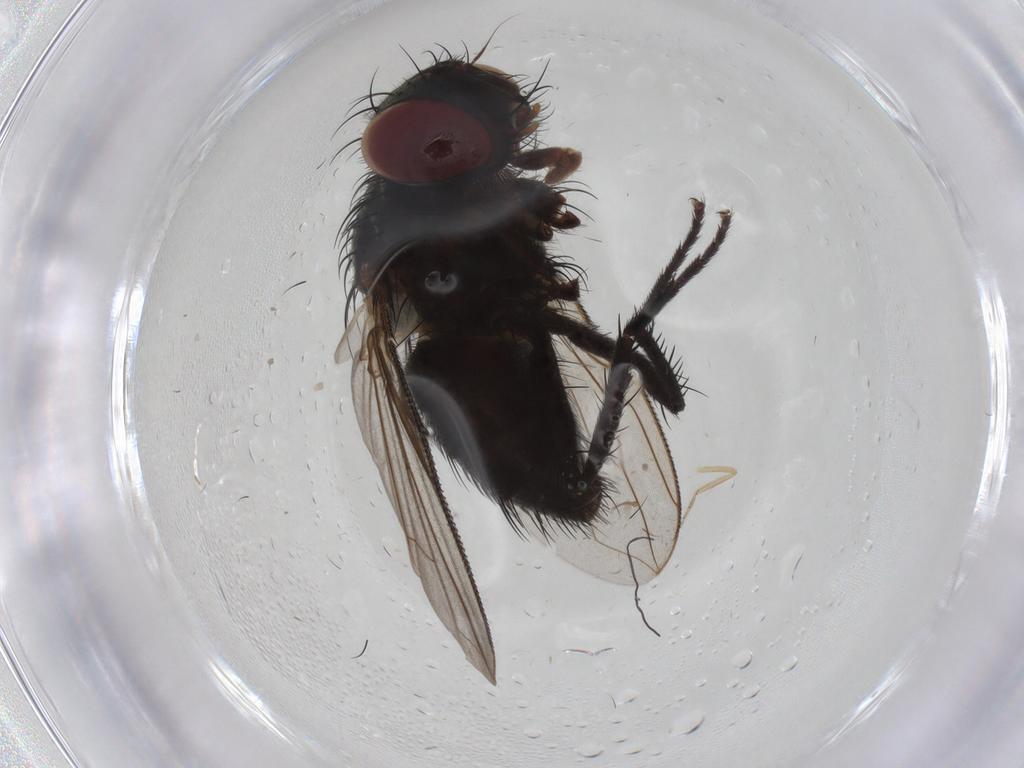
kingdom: Animalia
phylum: Arthropoda
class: Insecta
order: Diptera
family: Tachinidae
